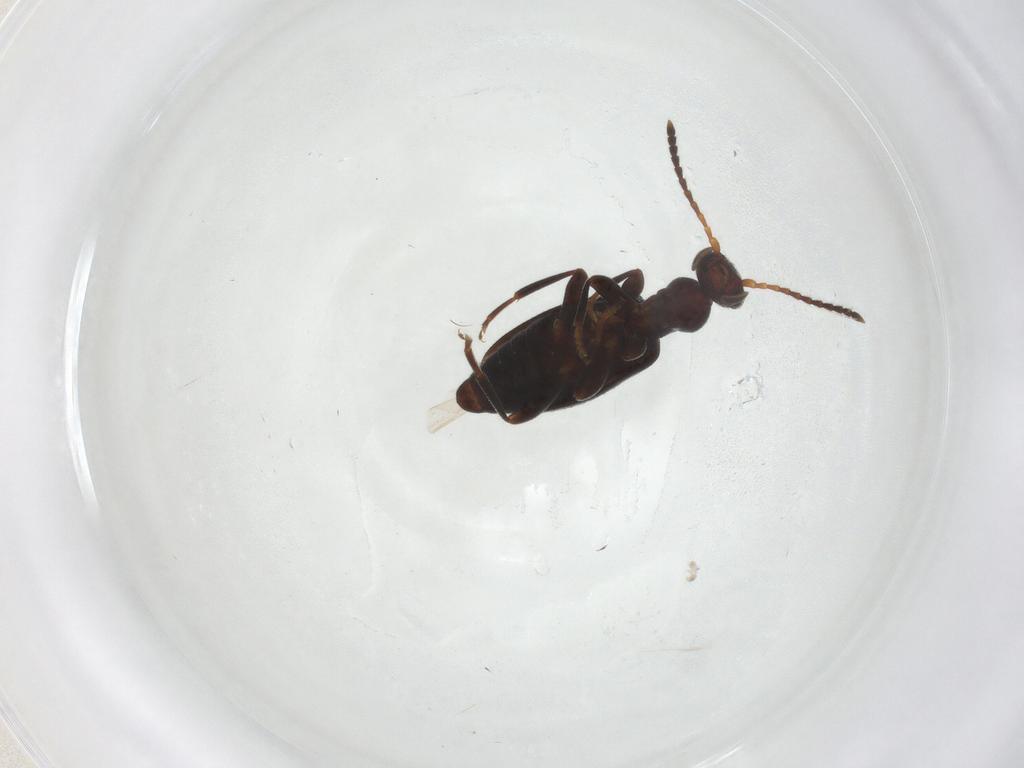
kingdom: Animalia
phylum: Arthropoda
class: Insecta
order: Coleoptera
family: Anthicidae
